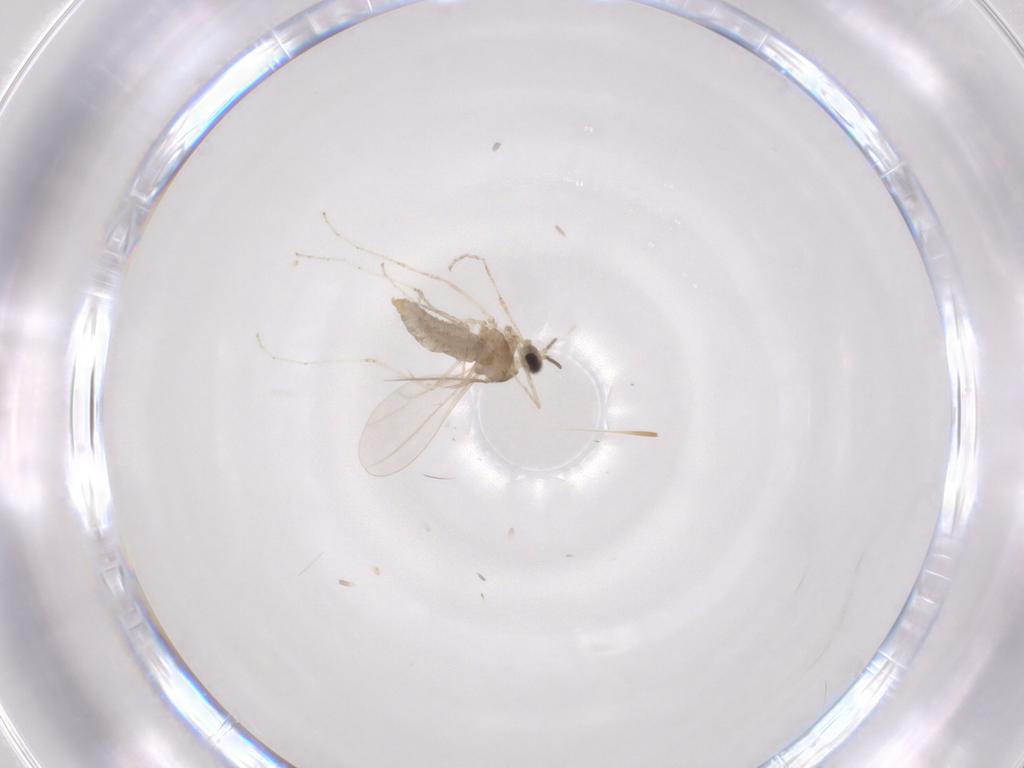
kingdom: Animalia
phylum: Arthropoda
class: Insecta
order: Diptera
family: Cecidomyiidae
